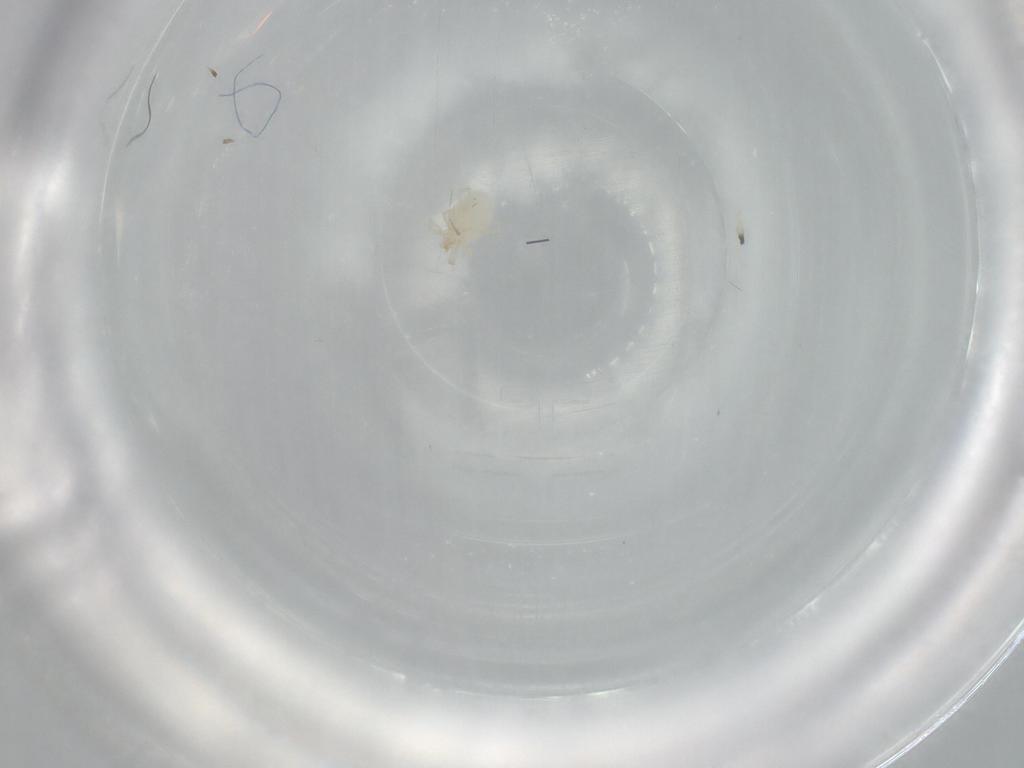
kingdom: Animalia
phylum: Arthropoda
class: Arachnida
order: Trombidiformes
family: Erythraeidae
